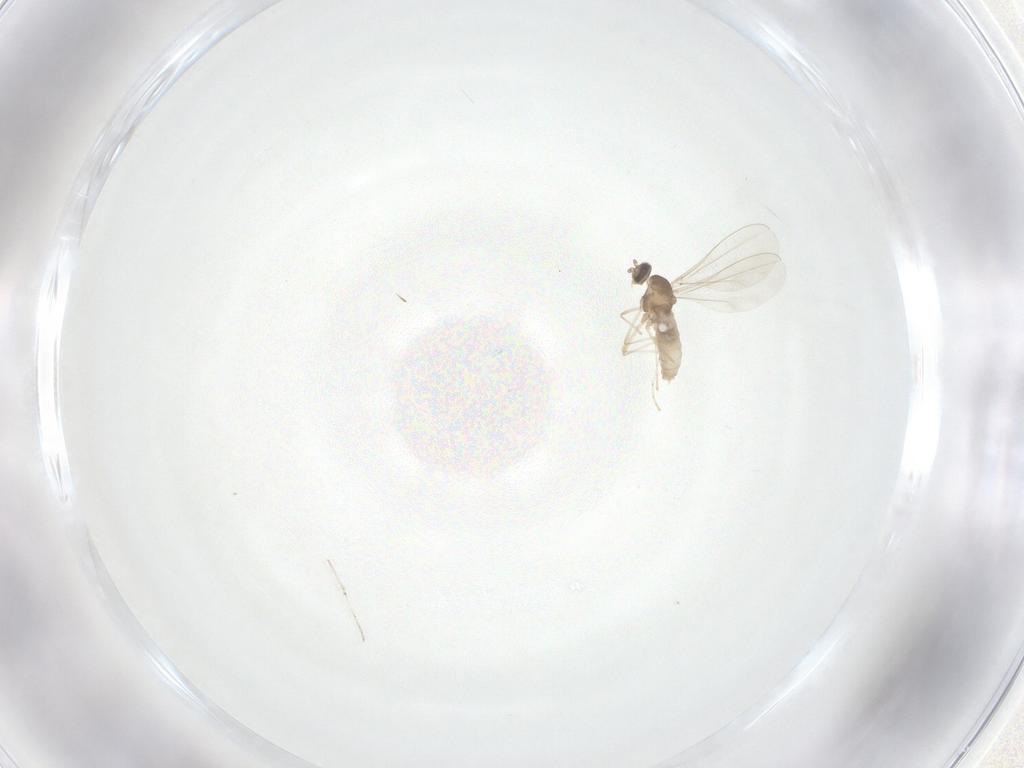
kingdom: Animalia
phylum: Arthropoda
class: Insecta
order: Diptera
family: Cecidomyiidae
